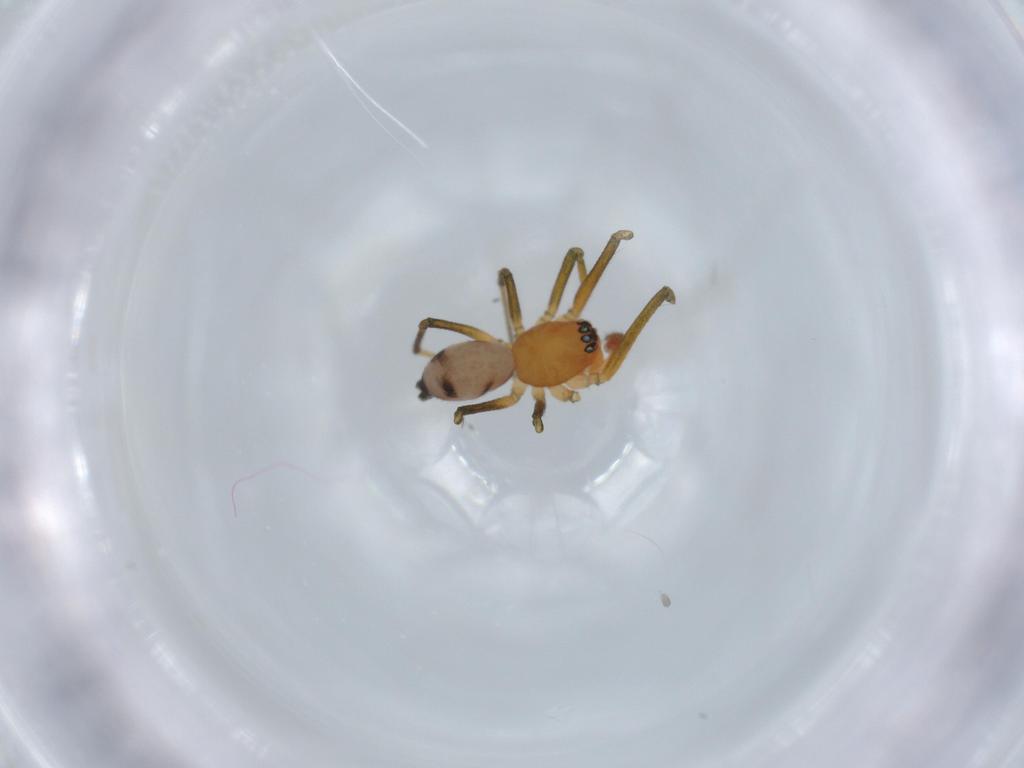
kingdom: Animalia
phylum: Arthropoda
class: Arachnida
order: Araneae
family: Linyphiidae
